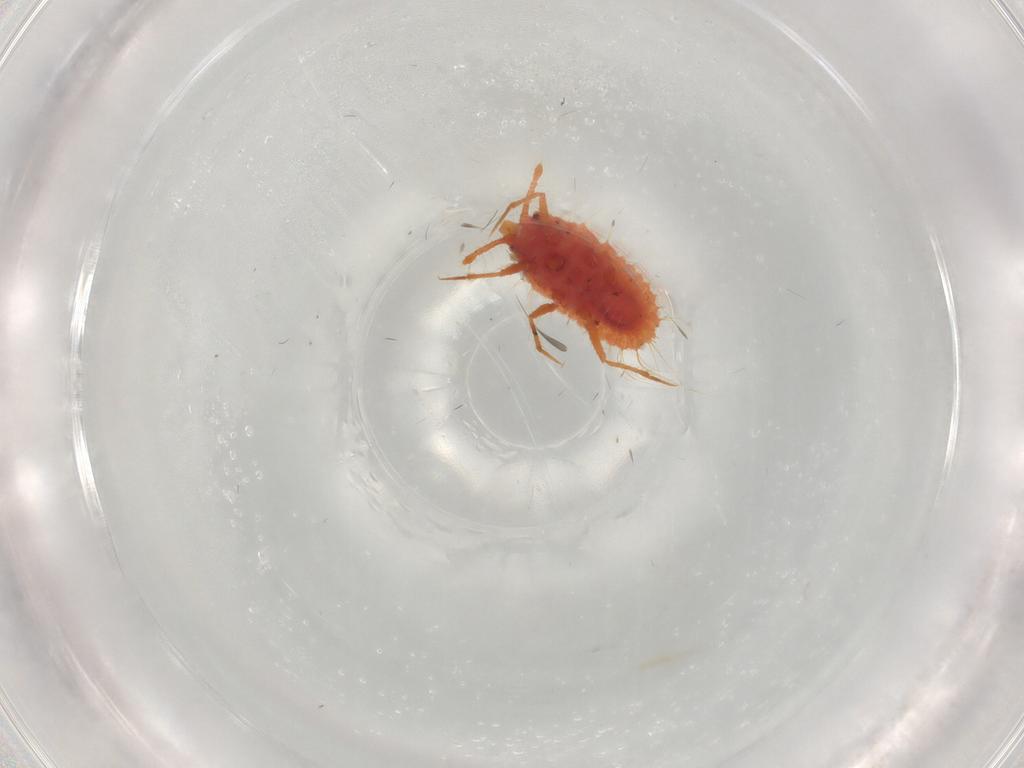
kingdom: Animalia
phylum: Arthropoda
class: Insecta
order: Hemiptera
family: Coccoidea_incertae_sedis
